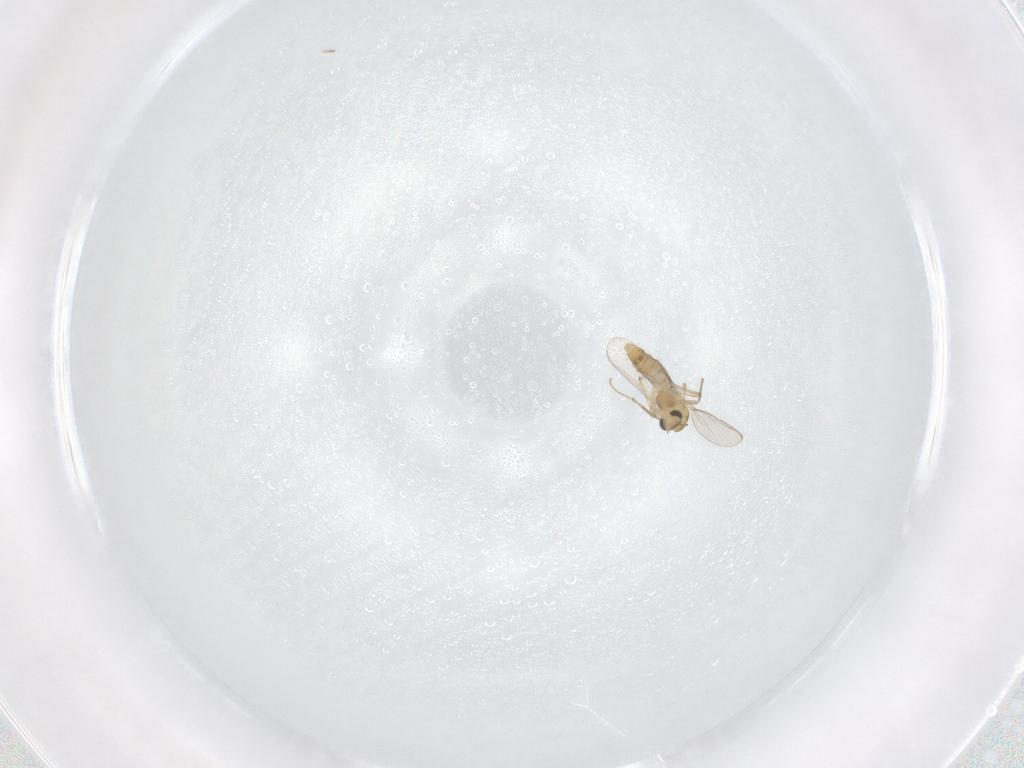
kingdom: Animalia
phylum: Arthropoda
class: Insecta
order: Diptera
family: Chironomidae
